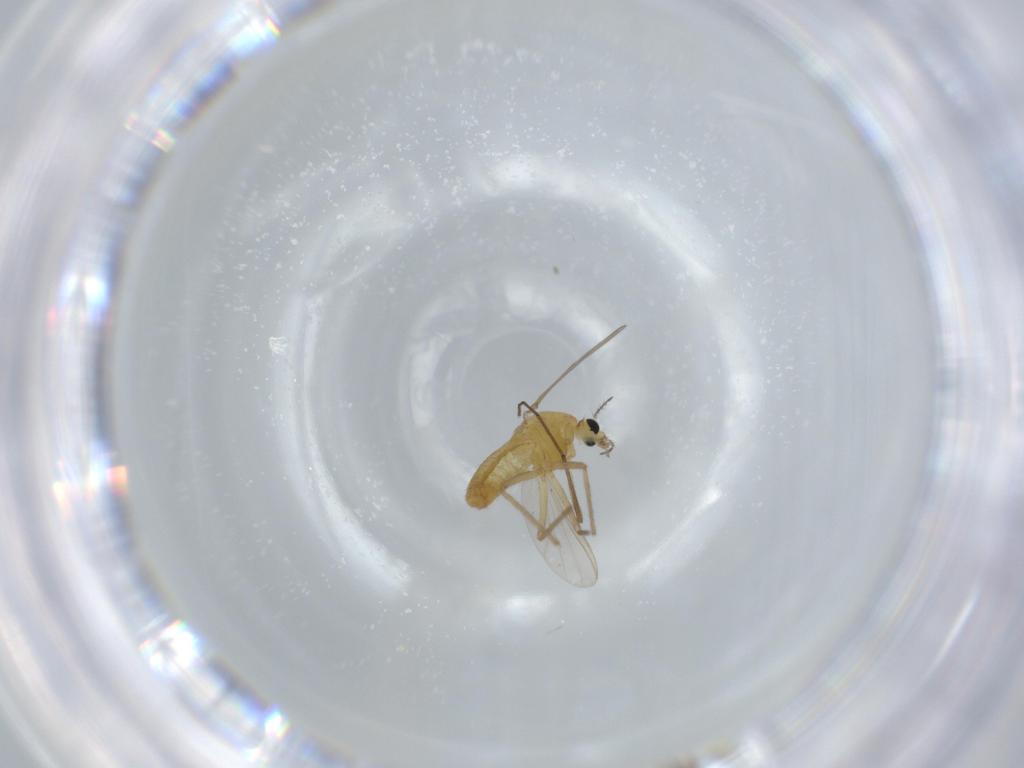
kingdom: Animalia
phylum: Arthropoda
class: Insecta
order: Diptera
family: Chironomidae
